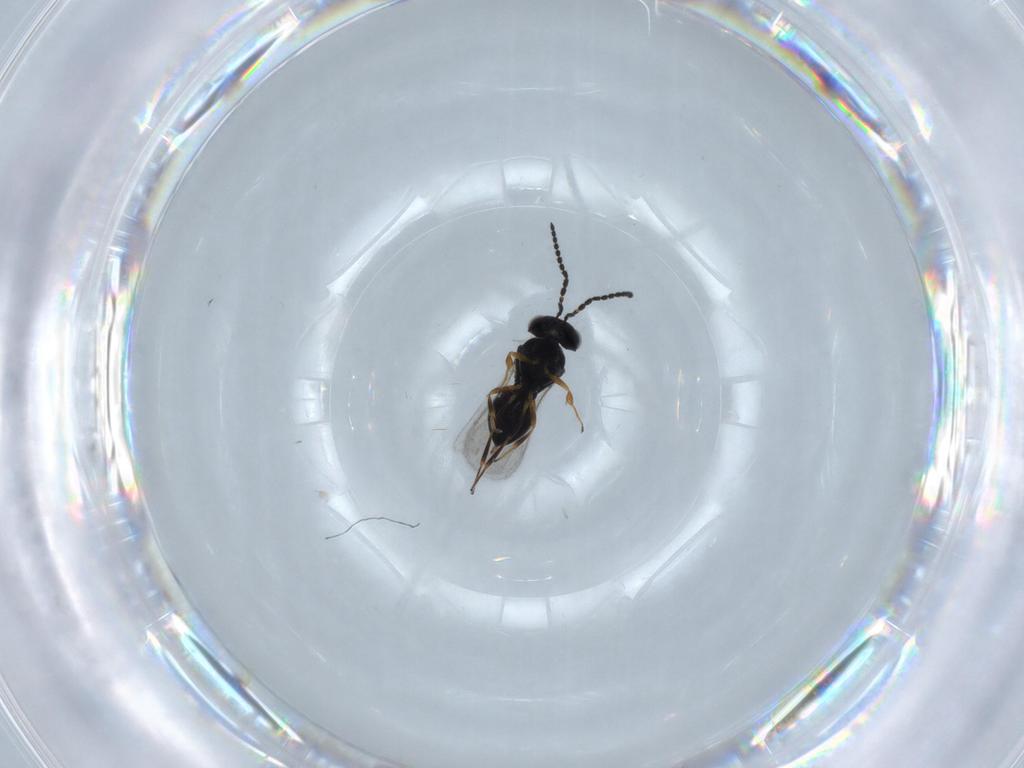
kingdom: Animalia
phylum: Arthropoda
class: Insecta
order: Hymenoptera
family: Scelionidae
